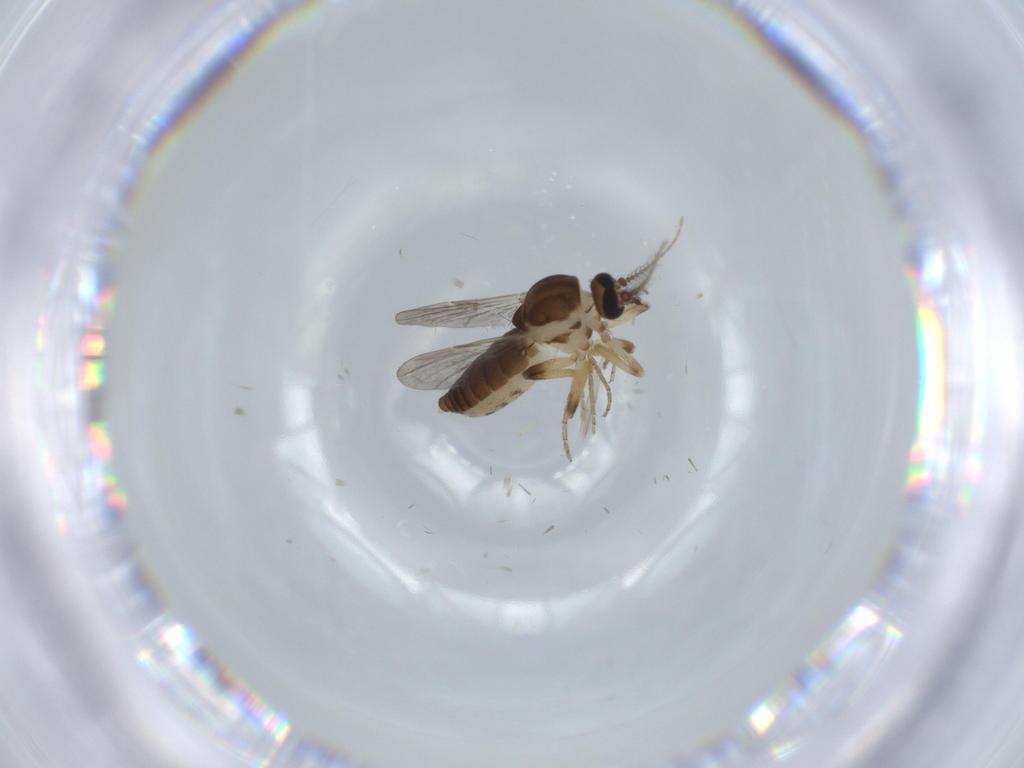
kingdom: Animalia
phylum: Arthropoda
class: Insecta
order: Diptera
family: Ceratopogonidae
